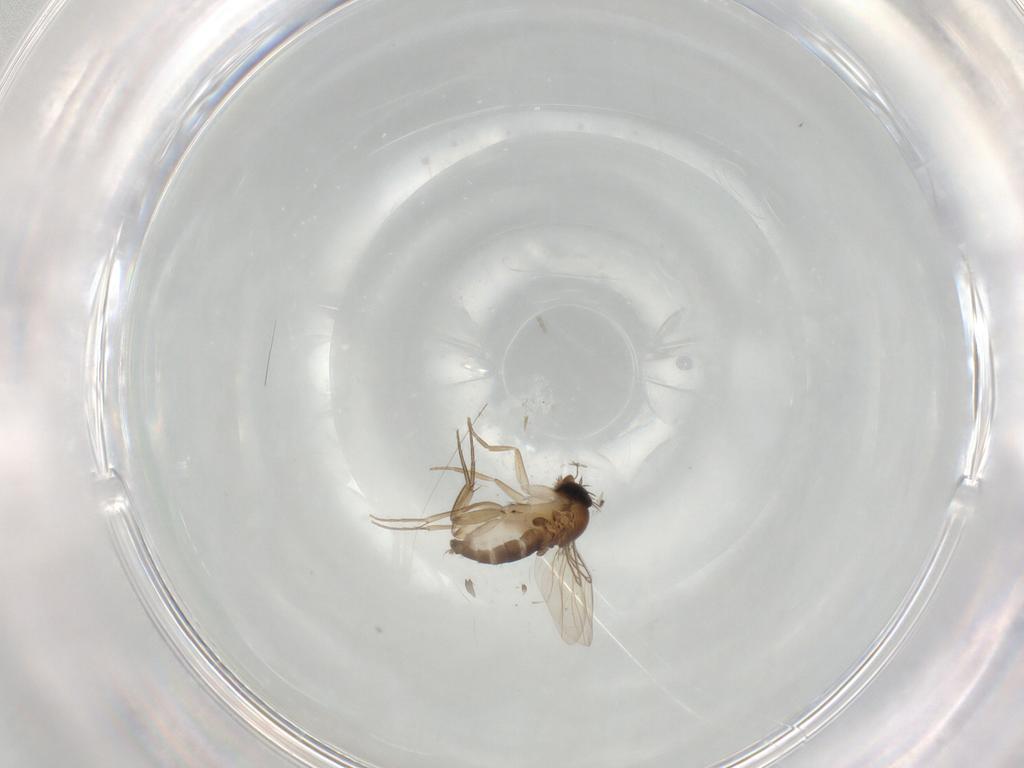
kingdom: Animalia
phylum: Arthropoda
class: Insecta
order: Diptera
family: Phoridae
